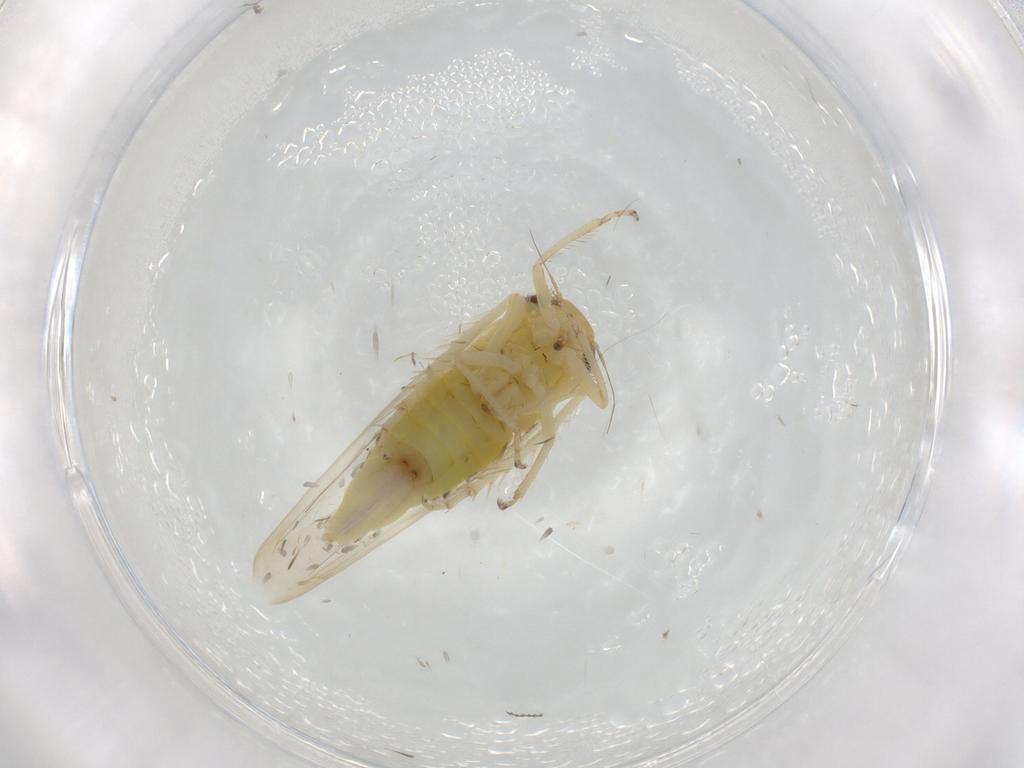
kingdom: Animalia
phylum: Arthropoda
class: Insecta
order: Hemiptera
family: Cicadellidae
